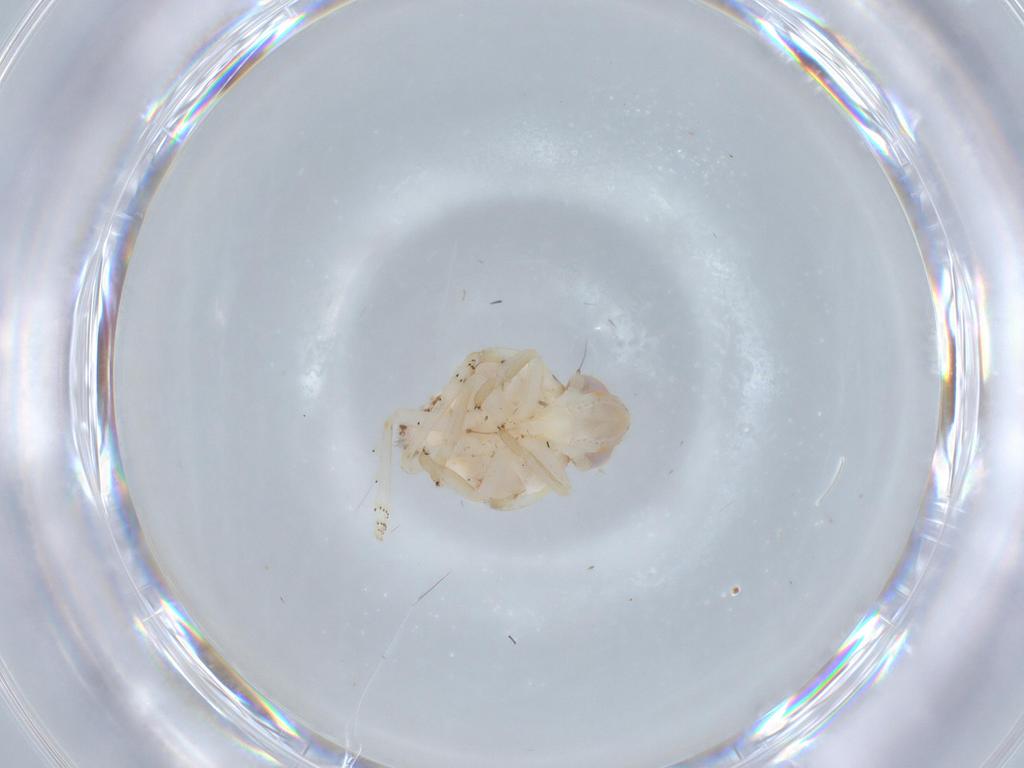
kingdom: Animalia
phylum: Arthropoda
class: Insecta
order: Hemiptera
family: Nogodinidae
